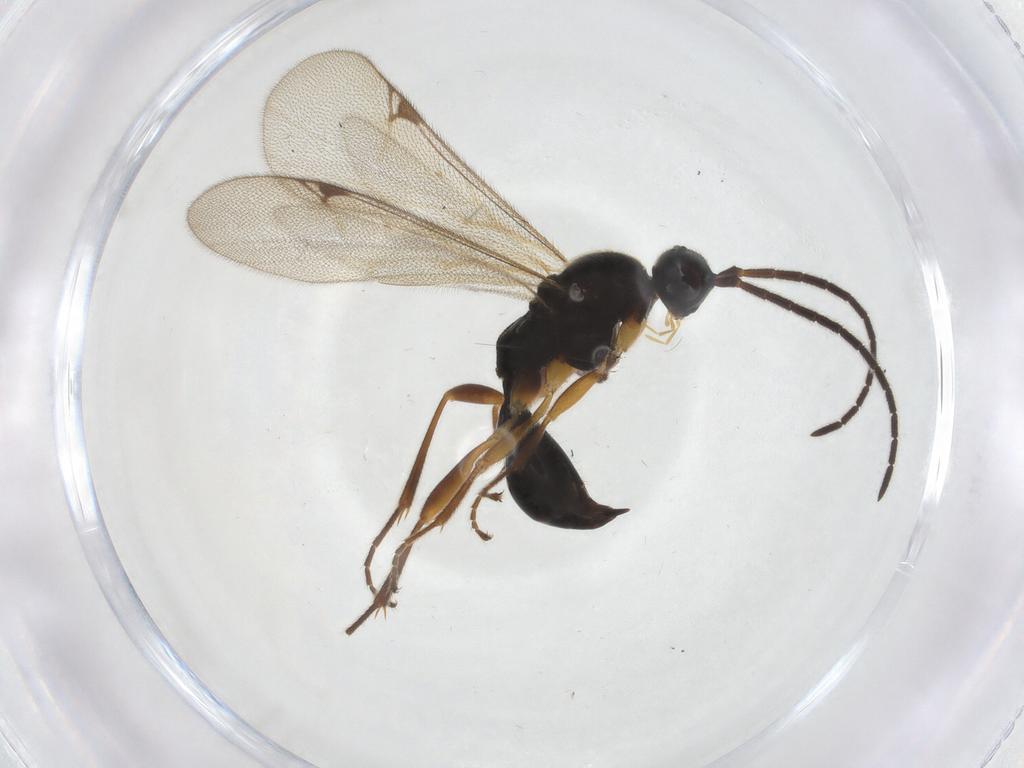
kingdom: Animalia
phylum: Arthropoda
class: Insecta
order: Hymenoptera
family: Proctotrupidae
